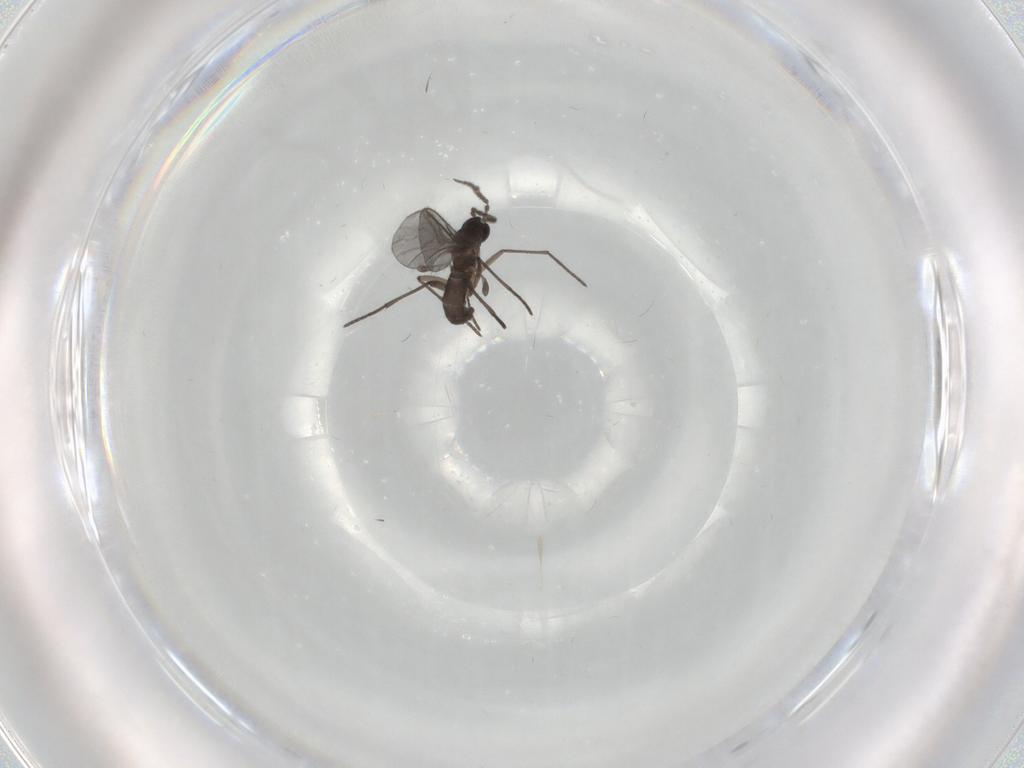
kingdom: Animalia
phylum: Arthropoda
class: Insecta
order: Diptera
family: Sciaridae
